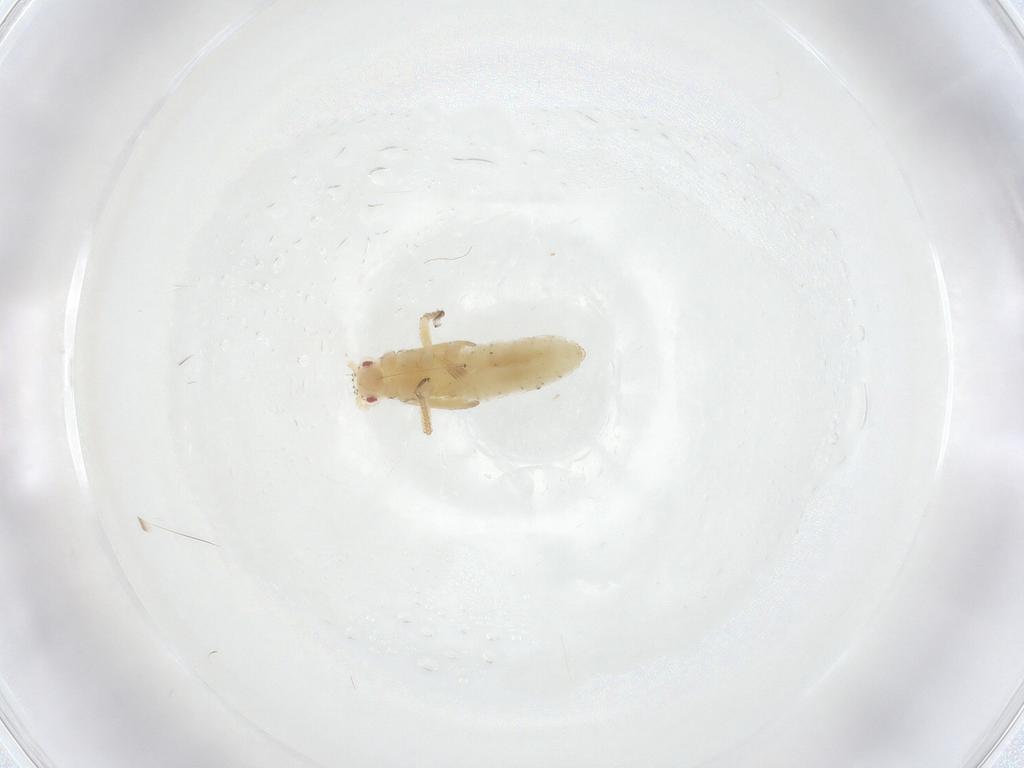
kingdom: Animalia
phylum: Arthropoda
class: Insecta
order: Hemiptera
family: Aphididae
